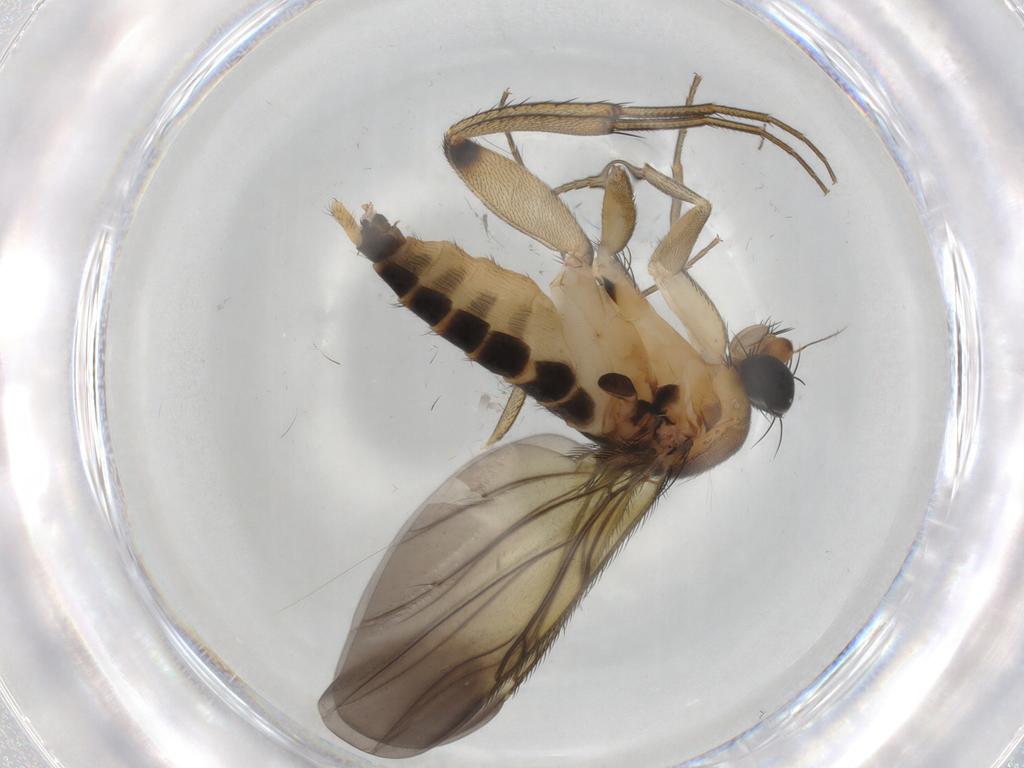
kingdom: Animalia
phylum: Arthropoda
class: Insecta
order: Diptera
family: Phoridae
